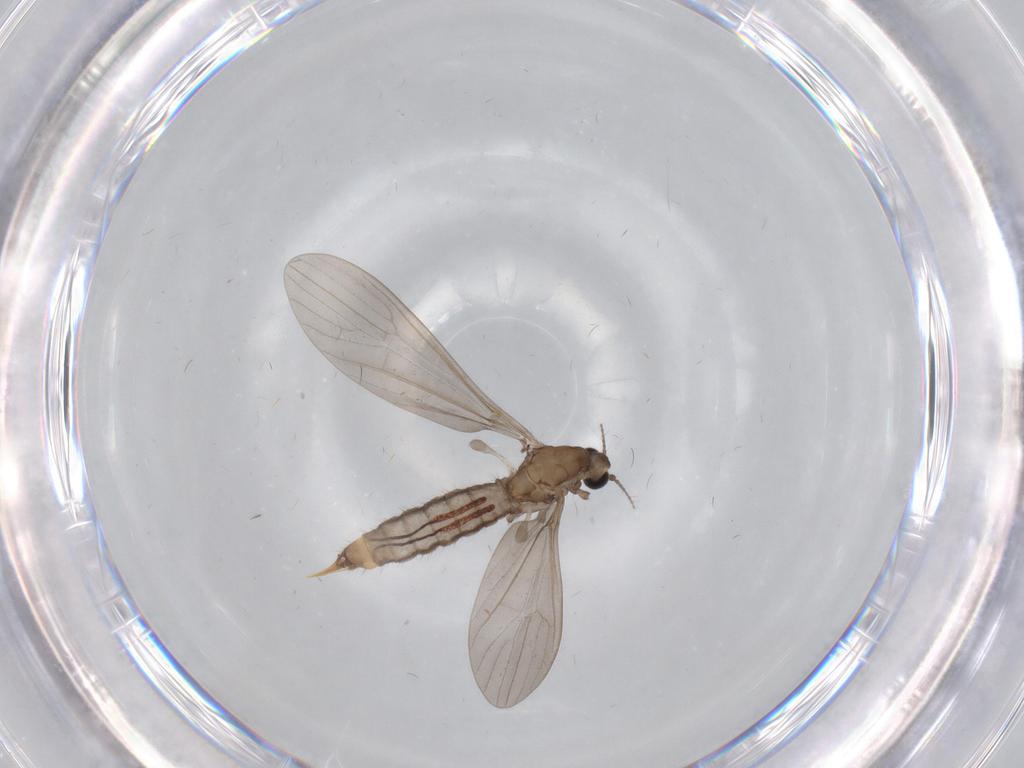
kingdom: Animalia
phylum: Arthropoda
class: Insecta
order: Diptera
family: Limoniidae
